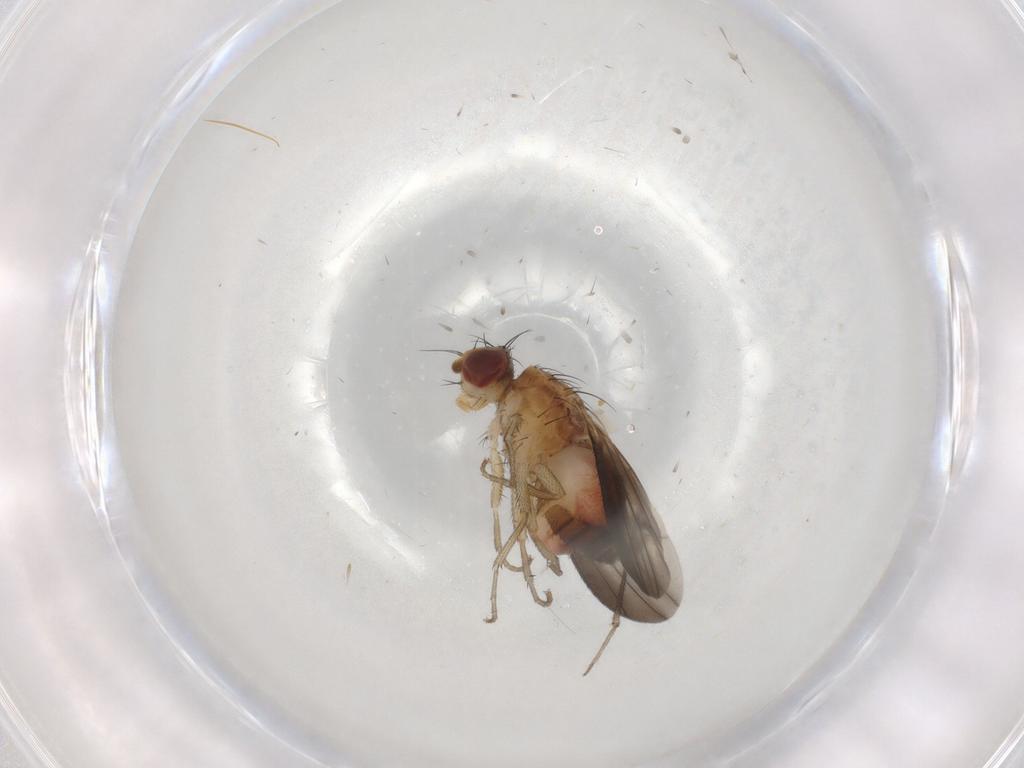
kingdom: Animalia
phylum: Arthropoda
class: Insecta
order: Diptera
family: Heleomyzidae
